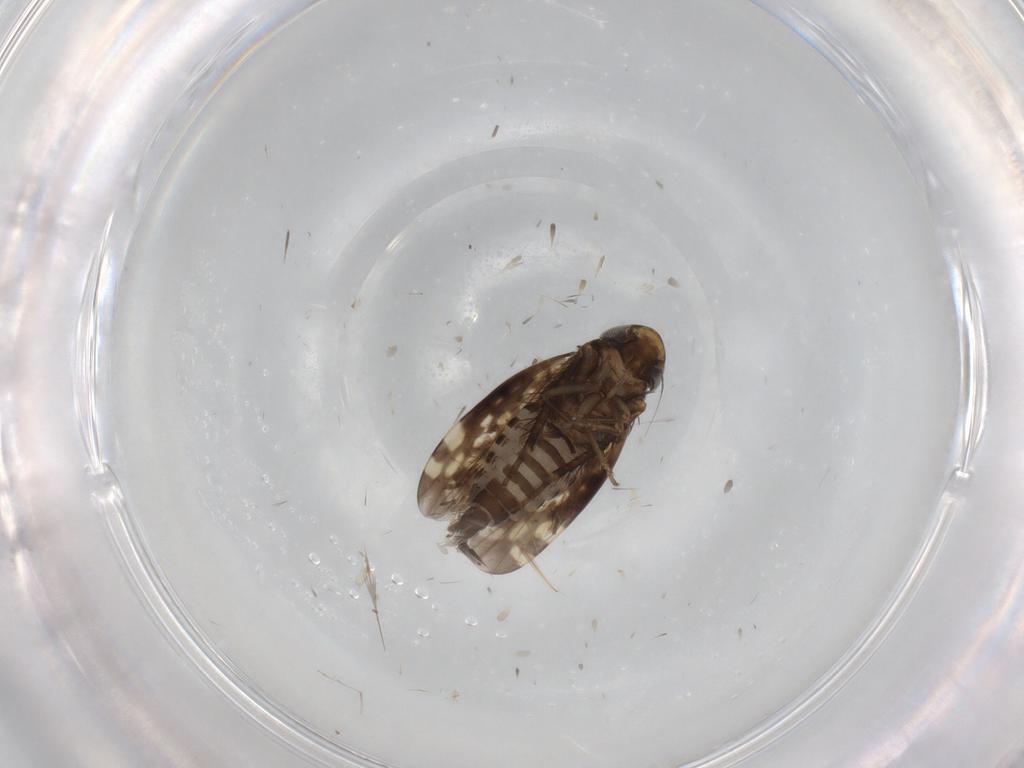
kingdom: Animalia
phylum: Arthropoda
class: Insecta
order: Hemiptera
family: Cicadellidae
